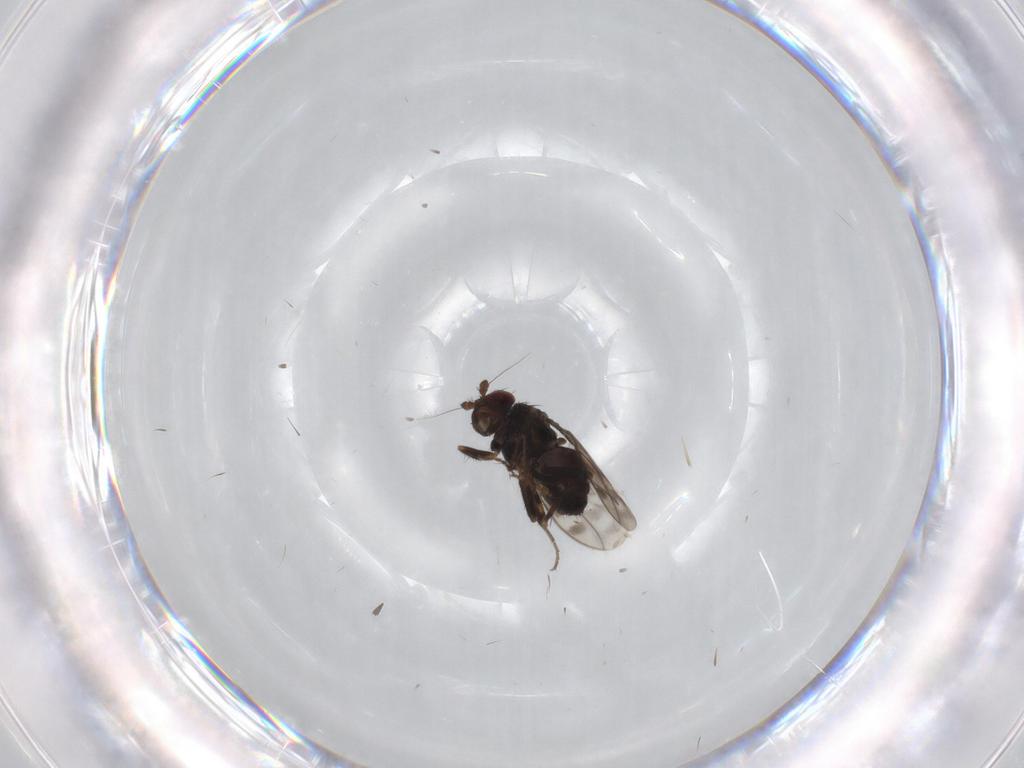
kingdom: Animalia
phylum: Arthropoda
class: Insecta
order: Diptera
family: Sphaeroceridae
